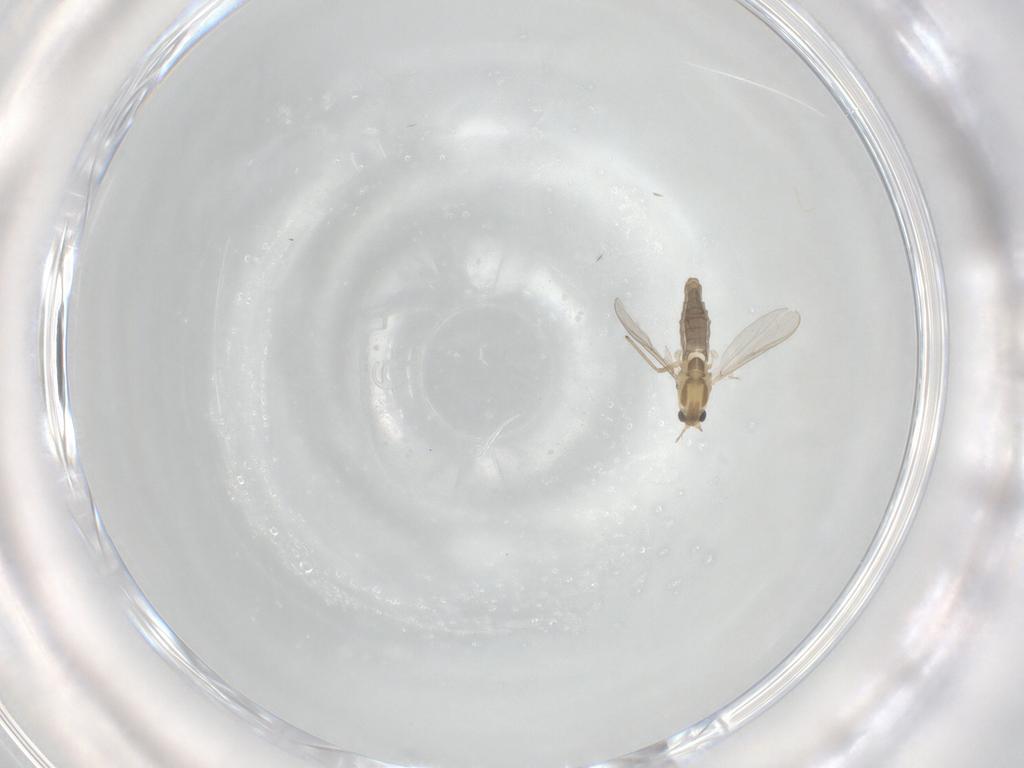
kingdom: Animalia
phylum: Arthropoda
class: Insecta
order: Diptera
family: Chironomidae
